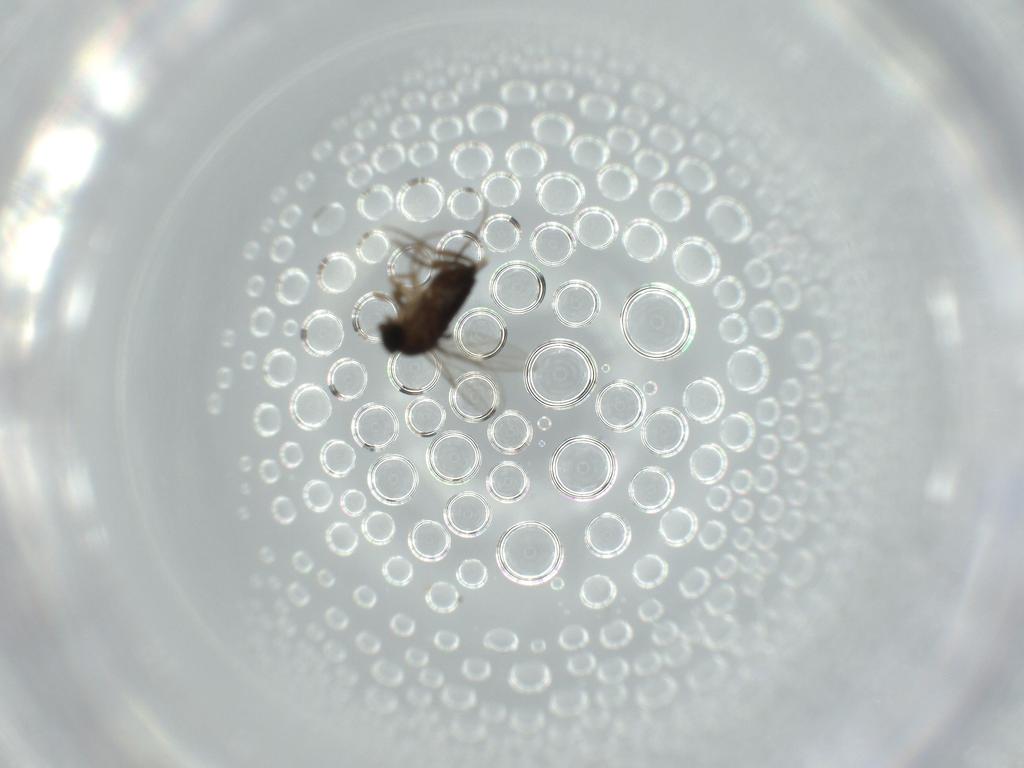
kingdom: Animalia
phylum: Arthropoda
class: Insecta
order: Diptera
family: Phoridae
